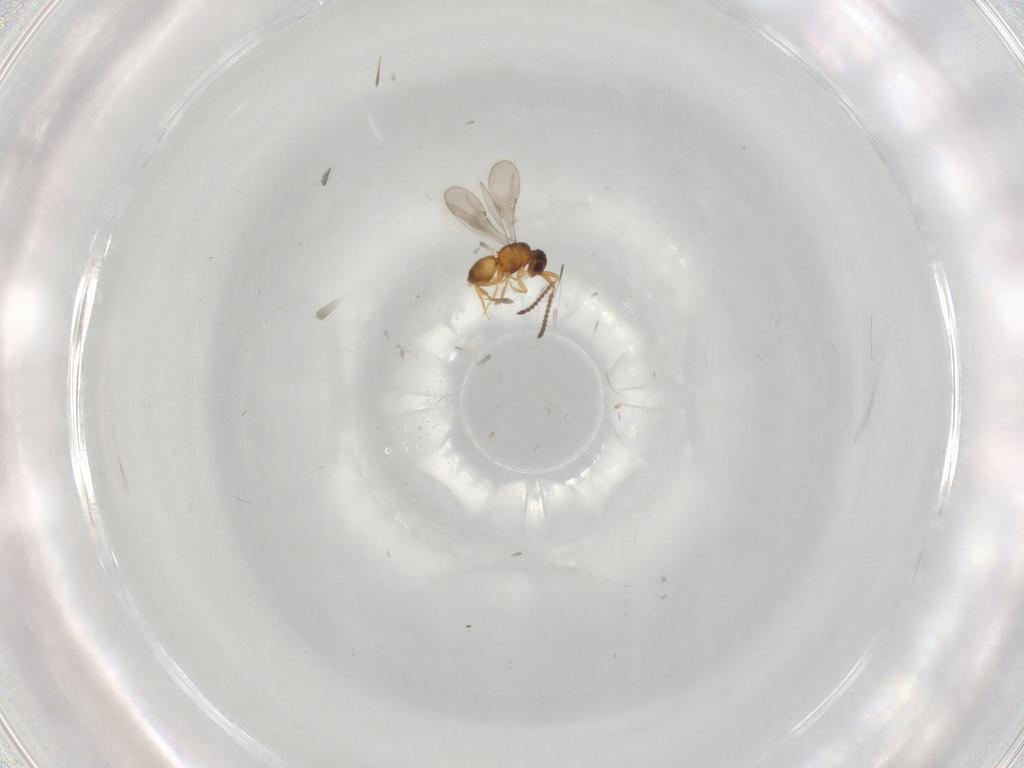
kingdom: Animalia
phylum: Arthropoda
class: Insecta
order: Hymenoptera
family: Ceraphronidae
